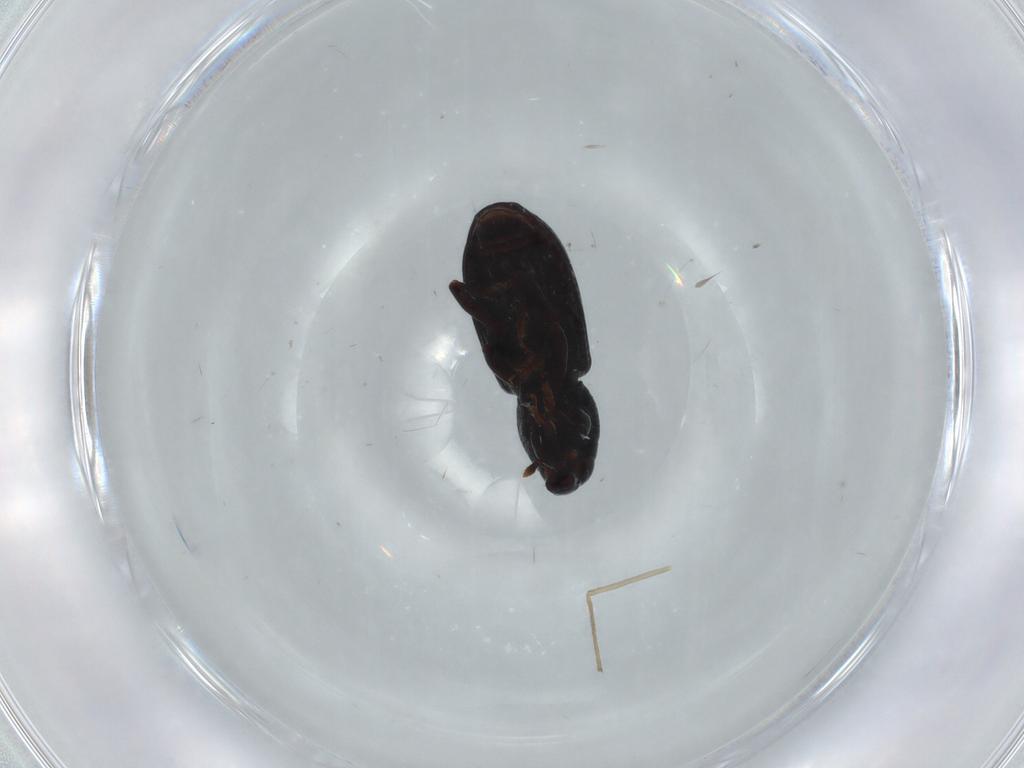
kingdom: Animalia
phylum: Arthropoda
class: Insecta
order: Coleoptera
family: Curculionidae
